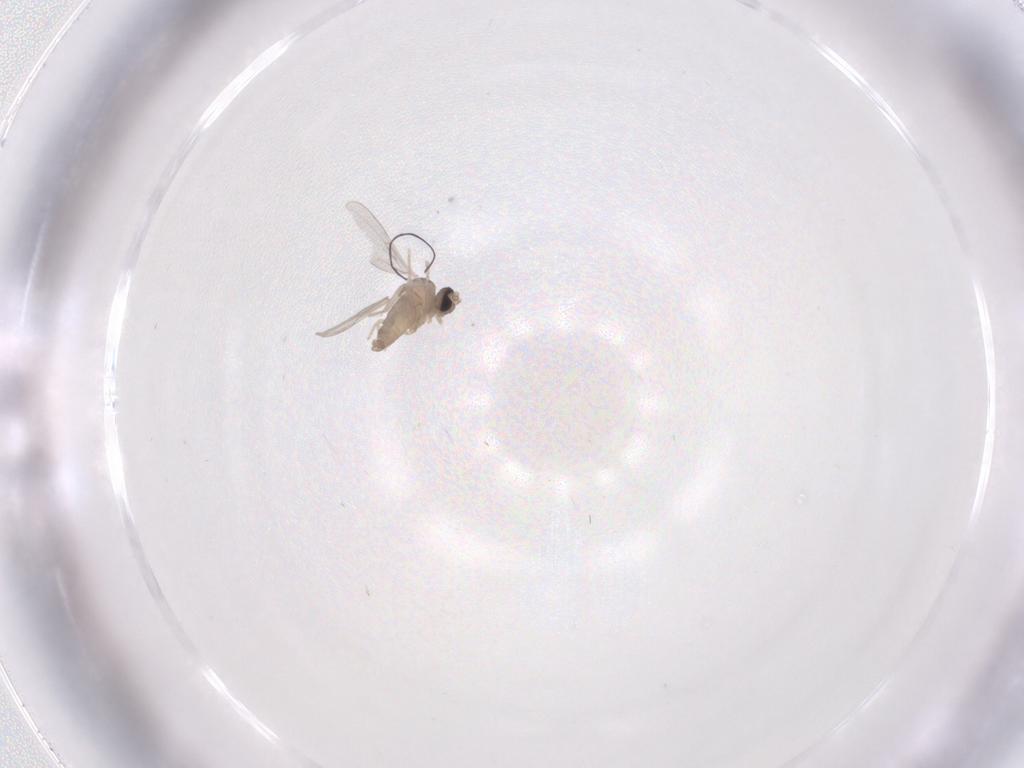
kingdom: Animalia
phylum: Arthropoda
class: Insecta
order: Diptera
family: Cecidomyiidae
